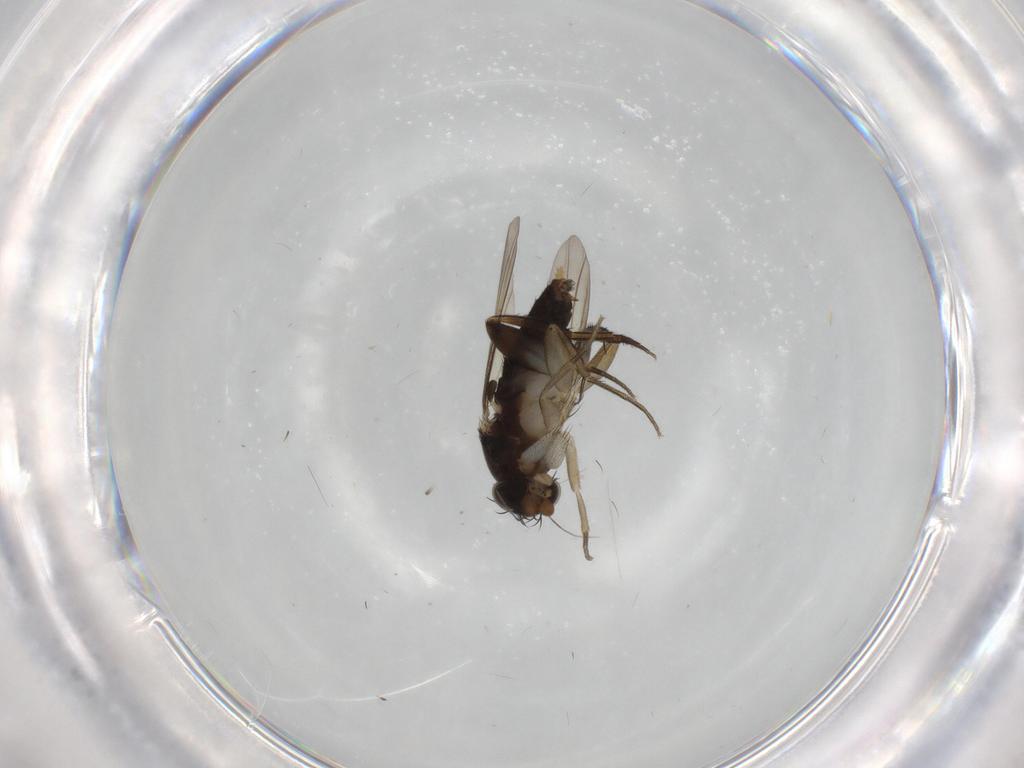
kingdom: Animalia
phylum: Arthropoda
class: Insecta
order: Diptera
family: Phoridae
